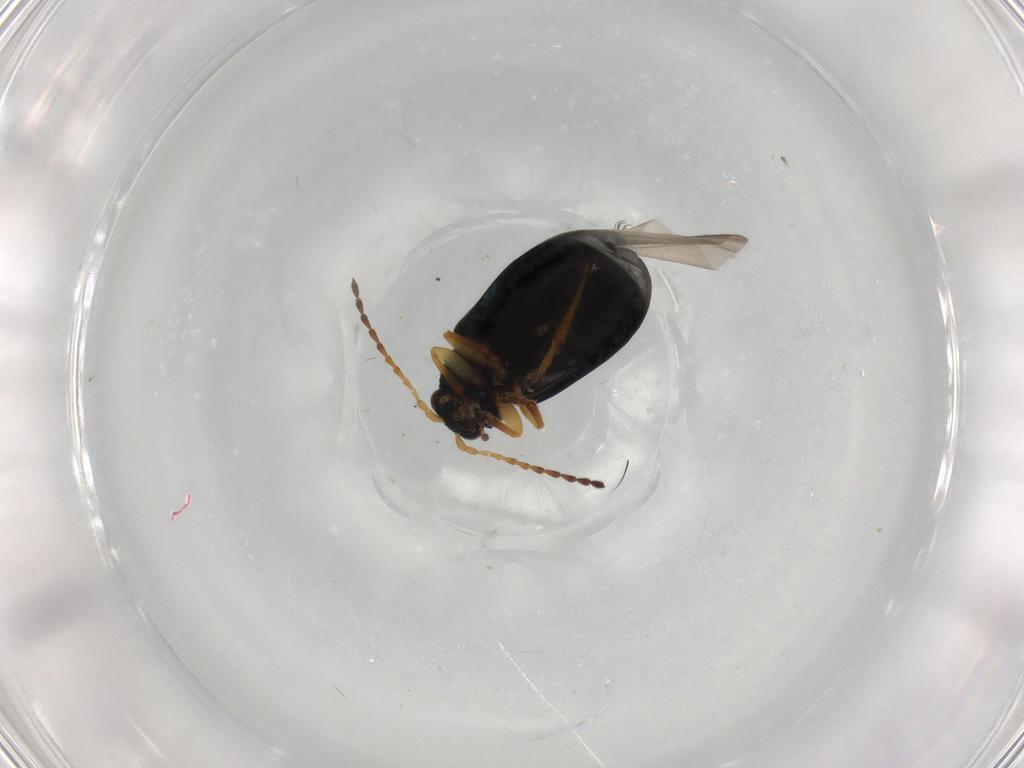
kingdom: Animalia
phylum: Arthropoda
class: Insecta
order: Coleoptera
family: Chrysomelidae
